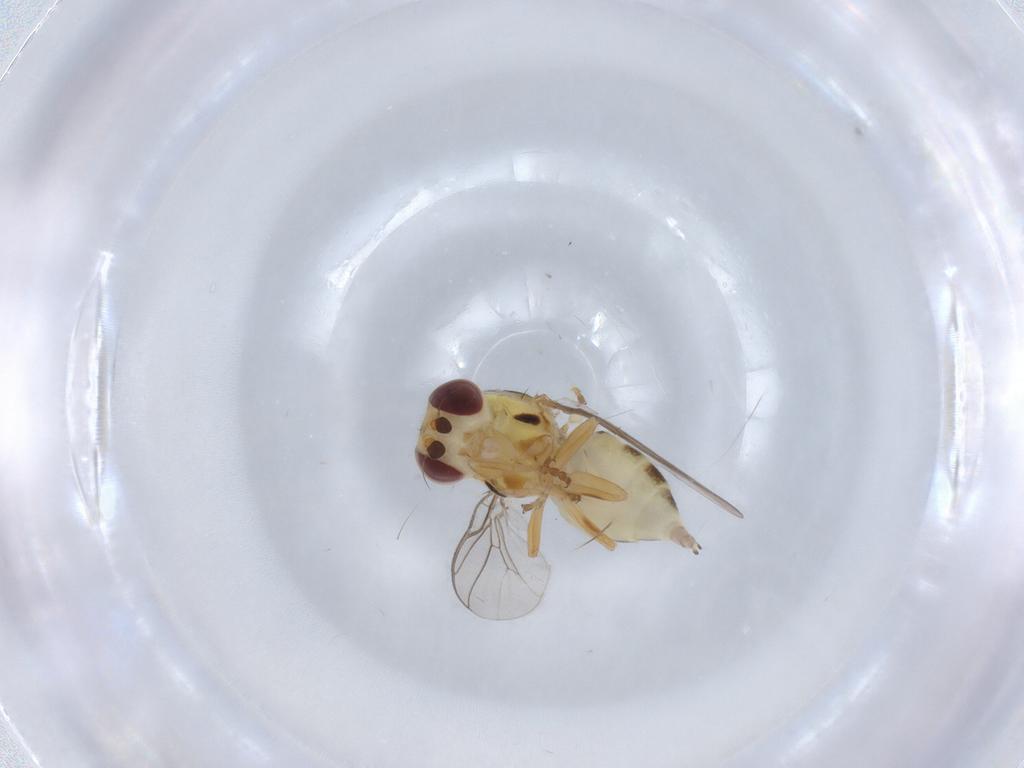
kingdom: Animalia
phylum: Arthropoda
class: Insecta
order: Diptera
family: Chloropidae
